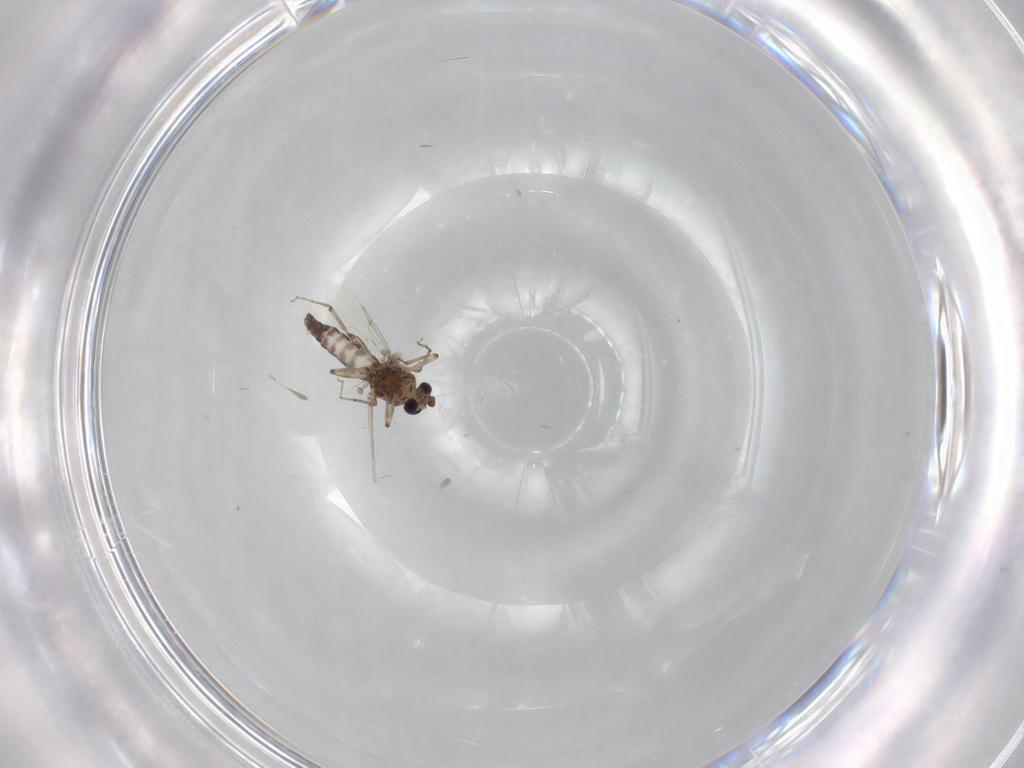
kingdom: Animalia
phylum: Arthropoda
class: Insecta
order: Diptera
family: Ceratopogonidae
